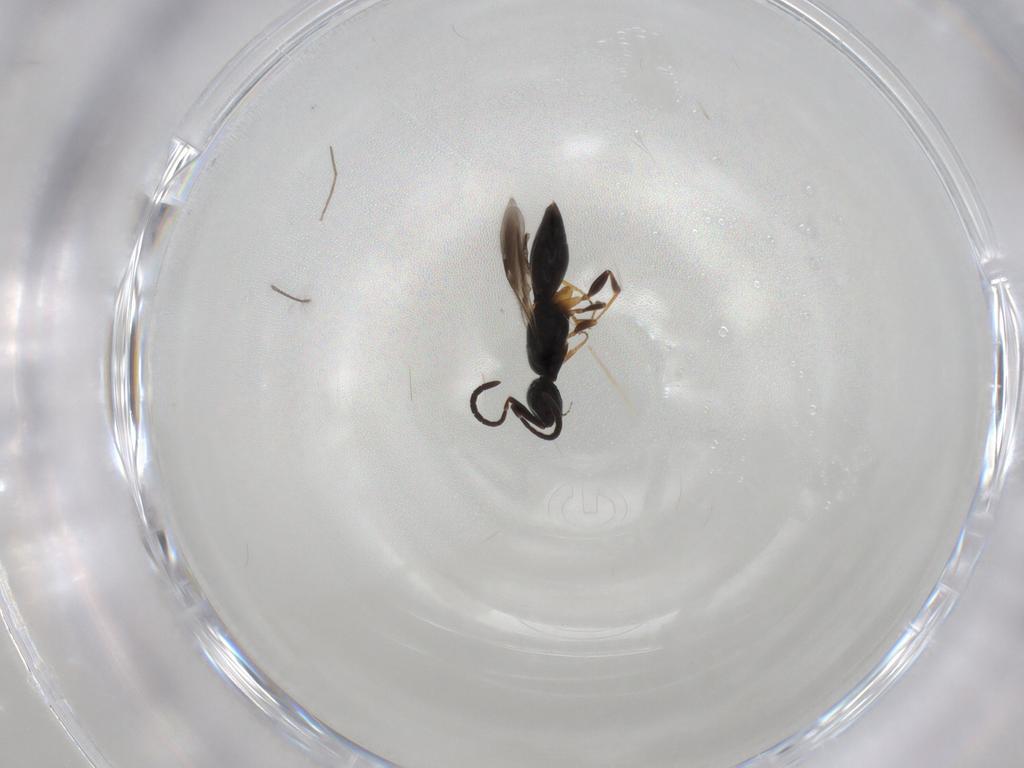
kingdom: Animalia
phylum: Arthropoda
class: Insecta
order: Hymenoptera
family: Megaspilidae
